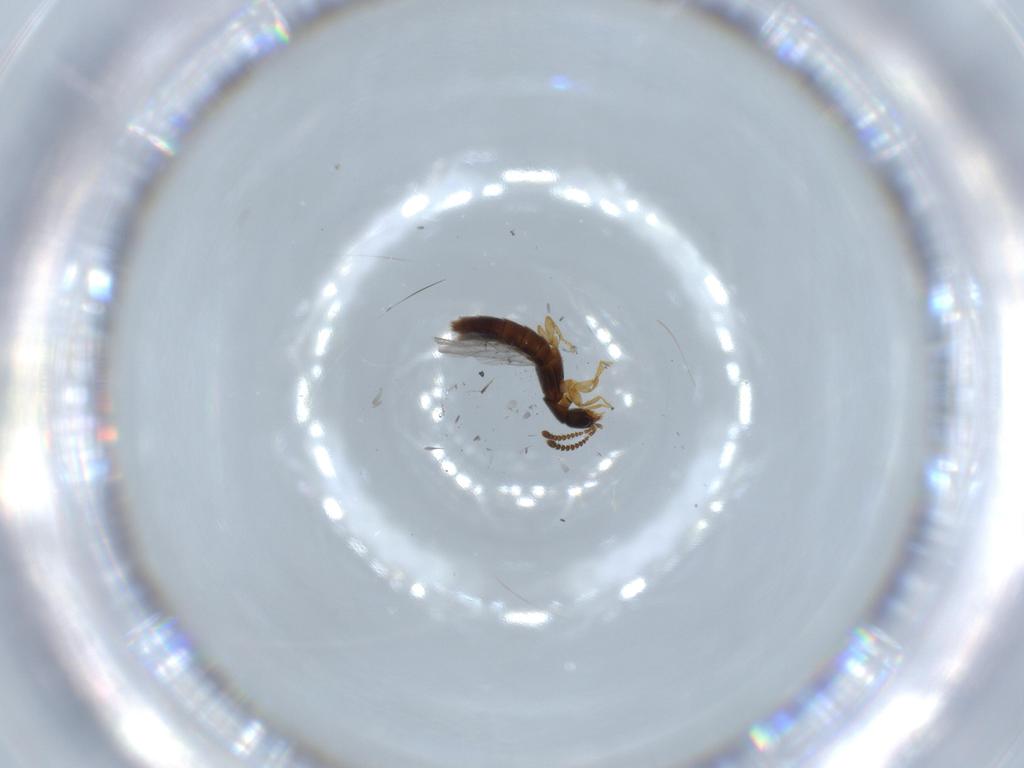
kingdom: Animalia
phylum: Arthropoda
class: Insecta
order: Coleoptera
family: Staphylinidae
